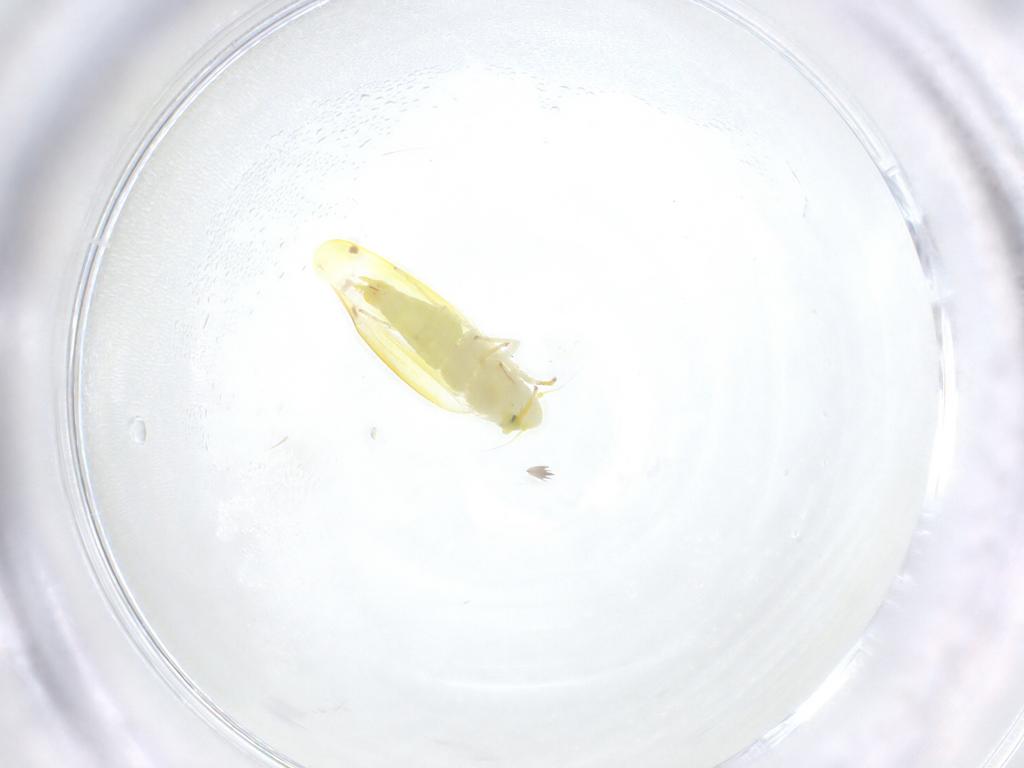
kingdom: Animalia
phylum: Arthropoda
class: Insecta
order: Hemiptera
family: Cicadellidae
